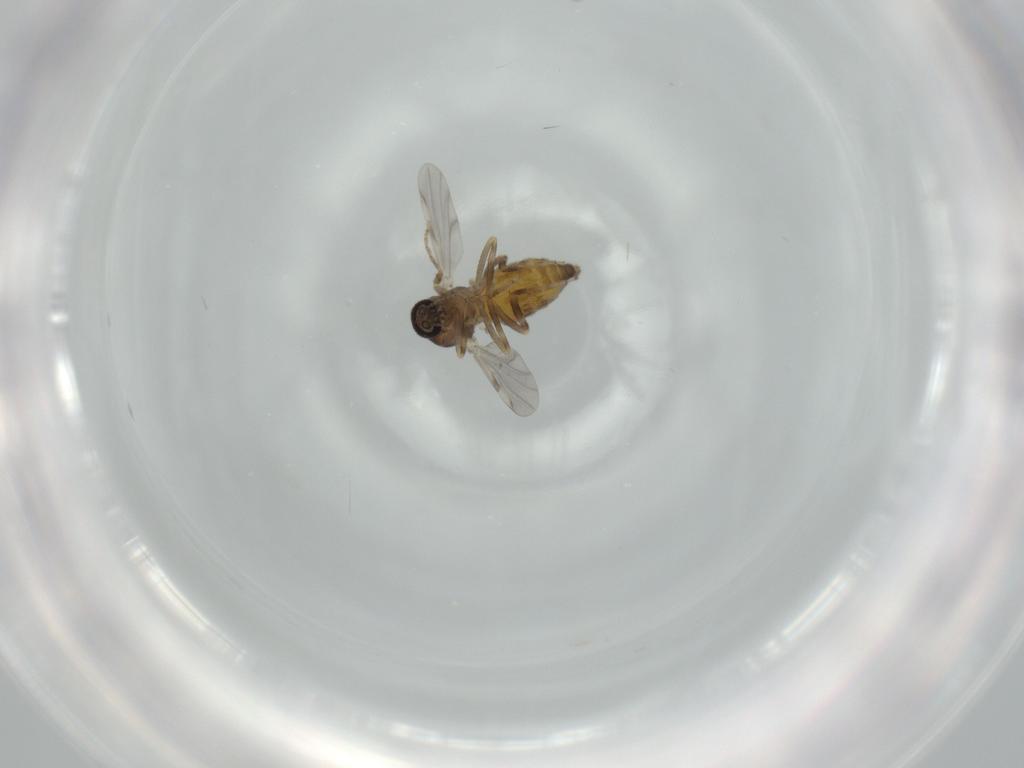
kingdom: Animalia
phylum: Arthropoda
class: Insecta
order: Diptera
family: Ceratopogonidae
